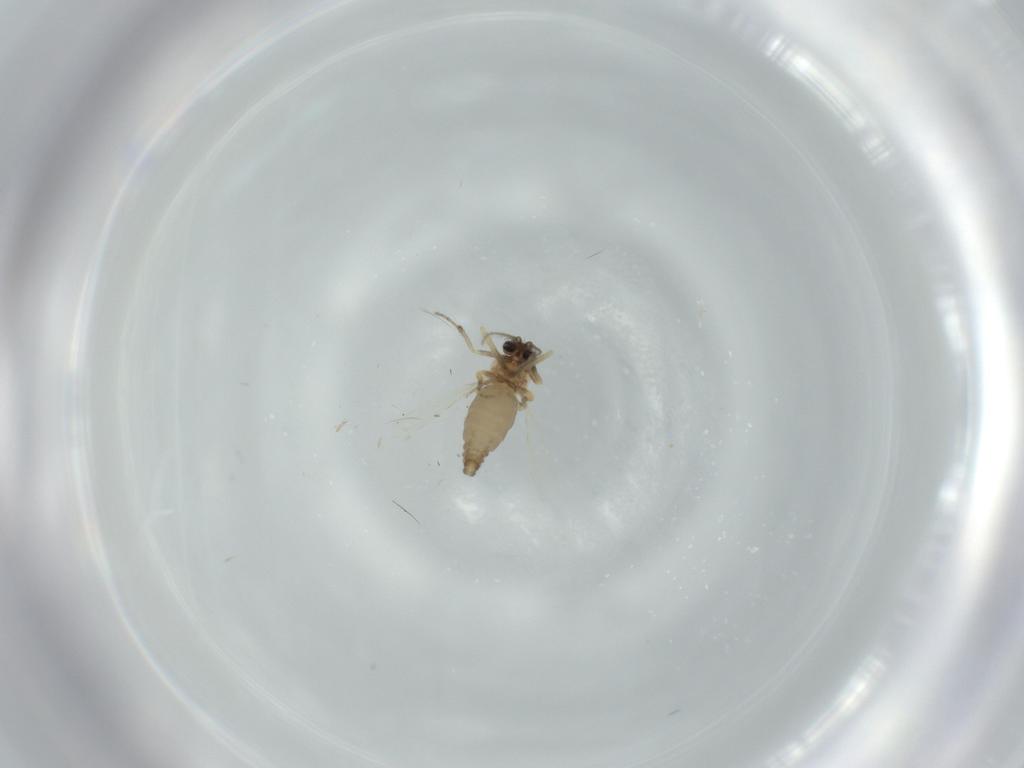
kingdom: Animalia
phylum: Arthropoda
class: Insecta
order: Diptera
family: Ceratopogonidae
